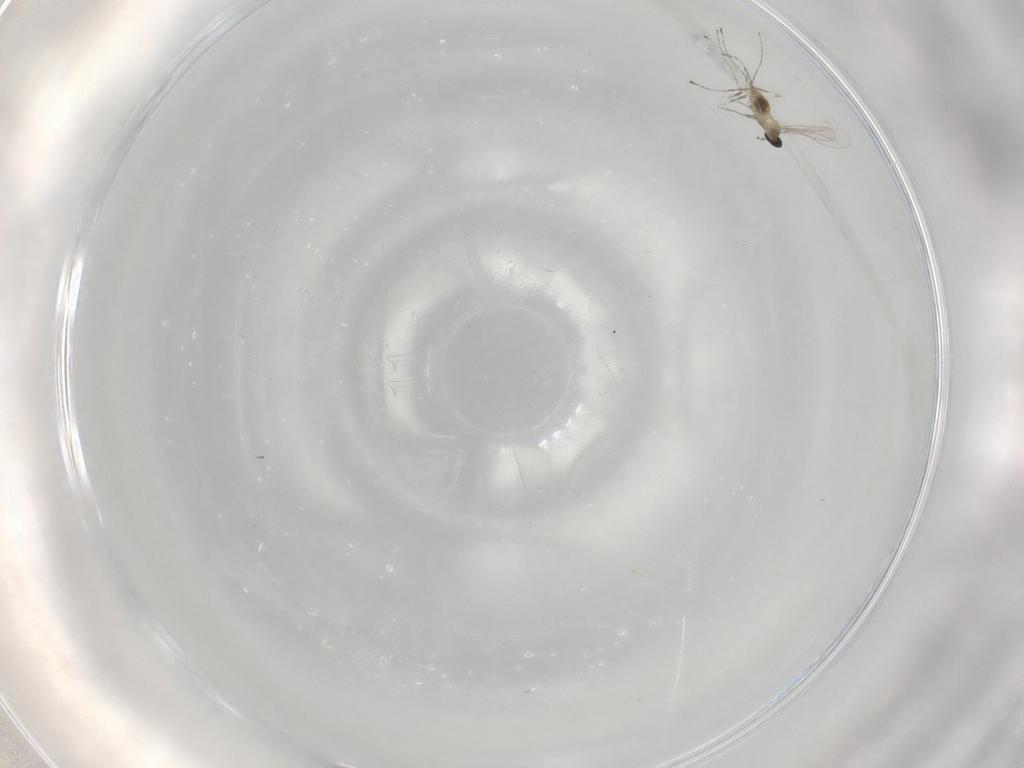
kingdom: Animalia
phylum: Arthropoda
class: Insecta
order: Diptera
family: Cecidomyiidae
